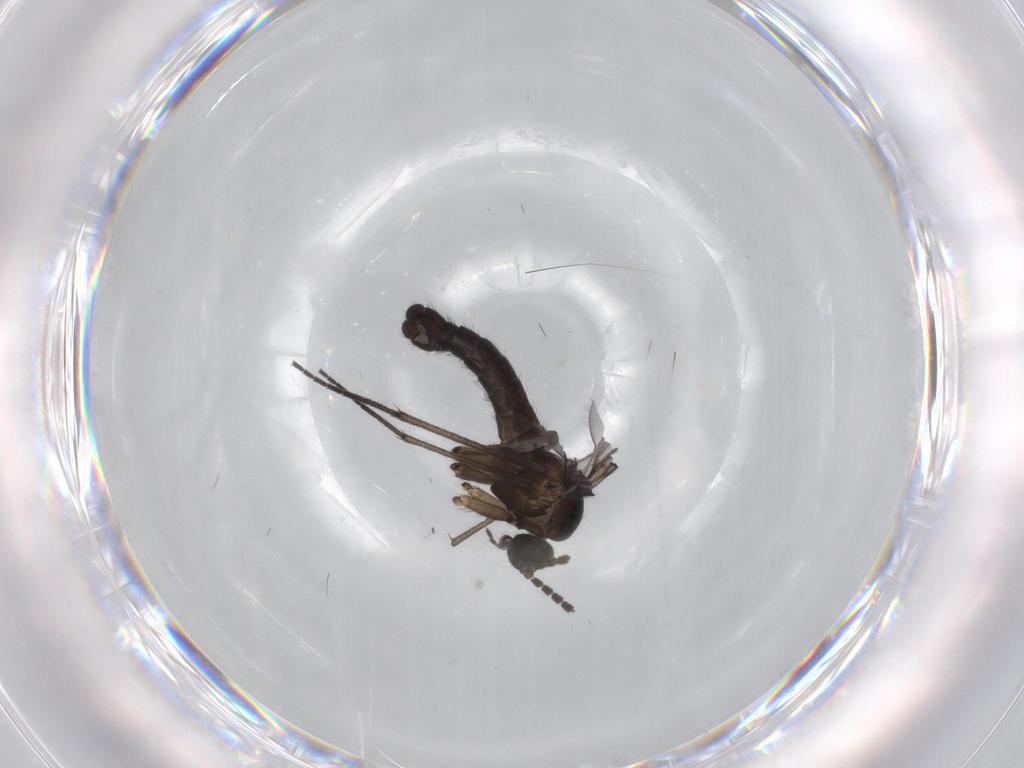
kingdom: Animalia
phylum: Arthropoda
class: Insecta
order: Diptera
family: Sciaridae
